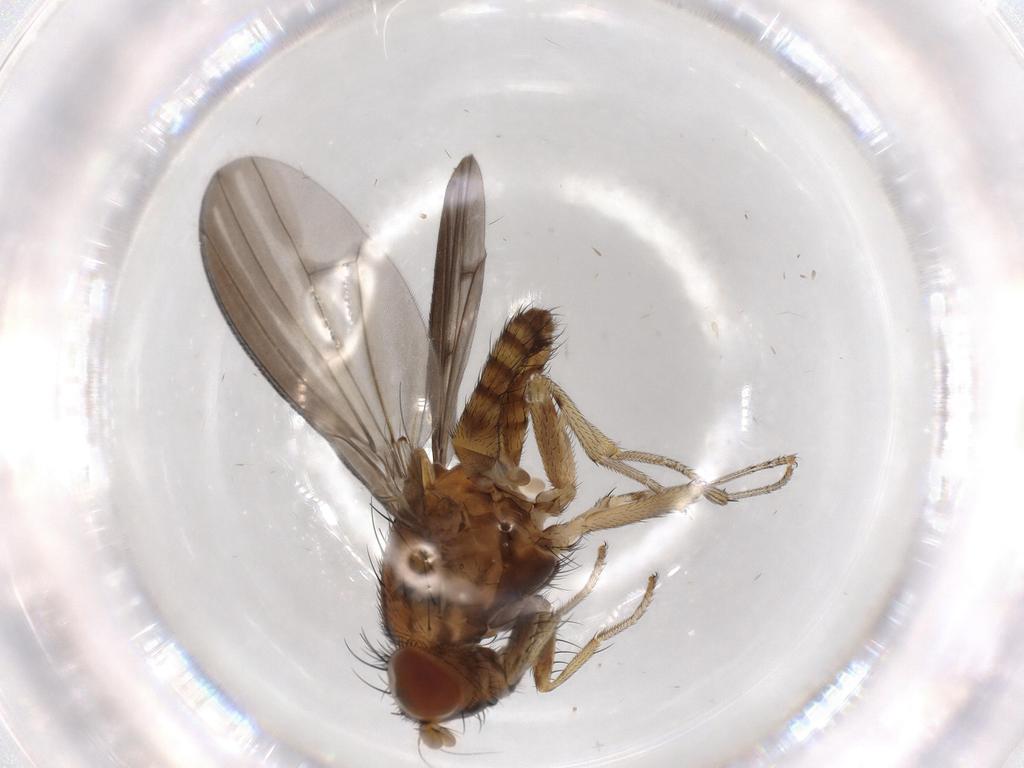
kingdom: Animalia
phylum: Arthropoda
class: Insecta
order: Diptera
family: Lauxaniidae
